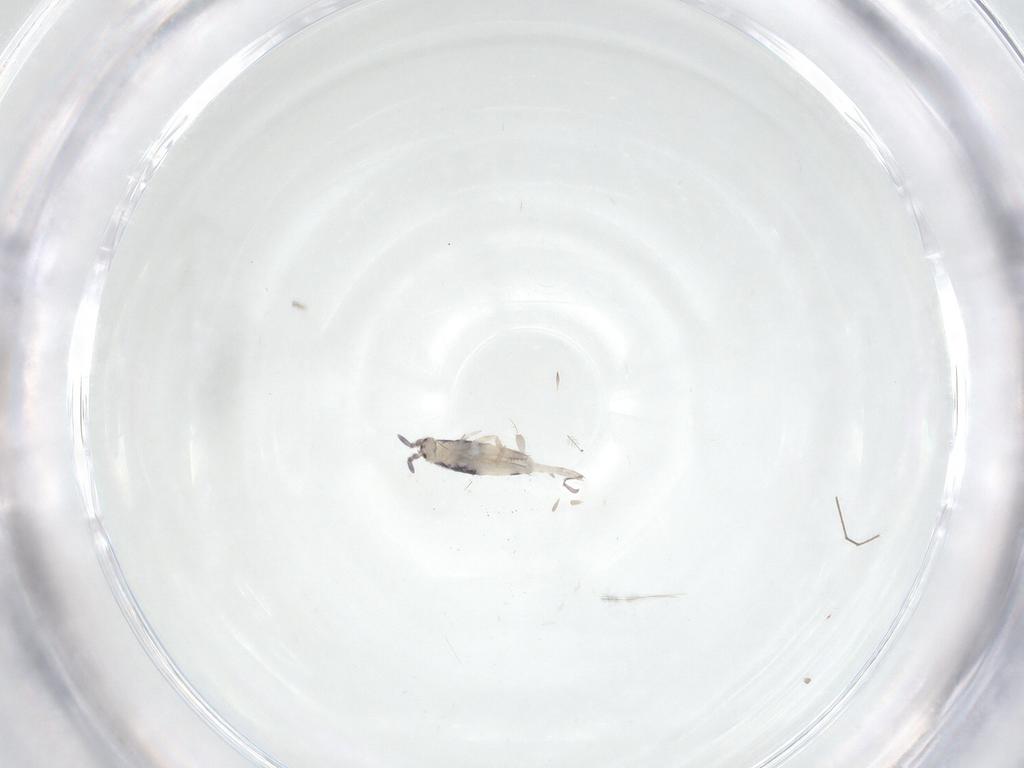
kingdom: Animalia
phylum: Arthropoda
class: Collembola
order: Entomobryomorpha
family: Entomobryidae
